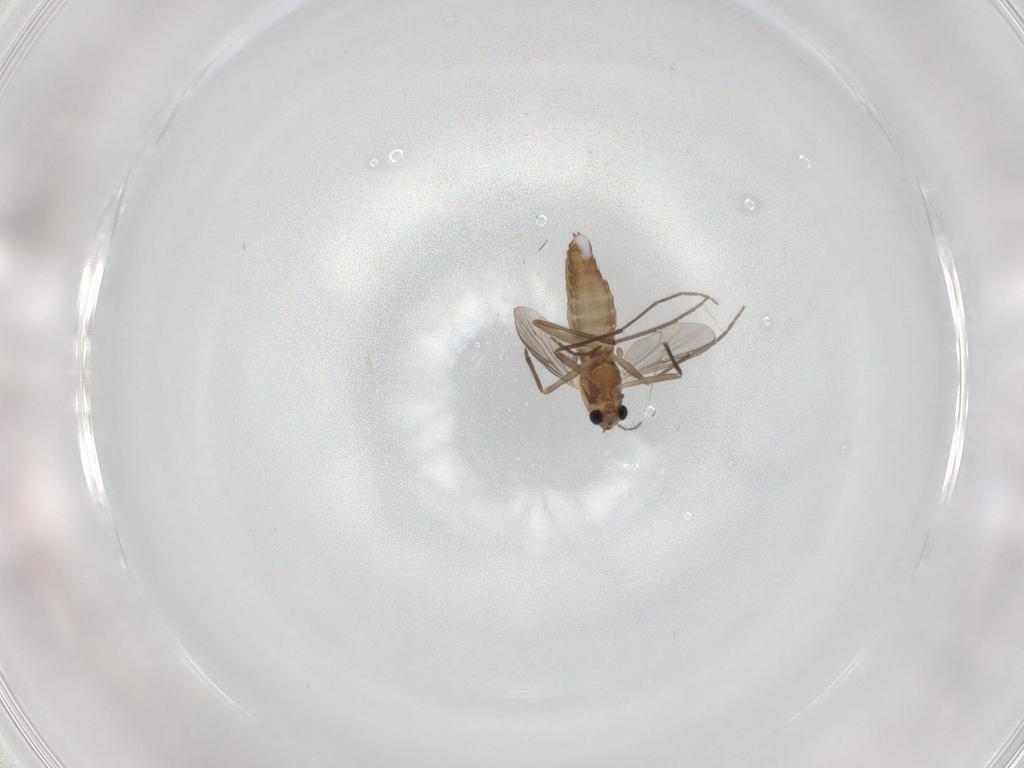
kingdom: Animalia
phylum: Arthropoda
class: Insecta
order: Diptera
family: Chironomidae
